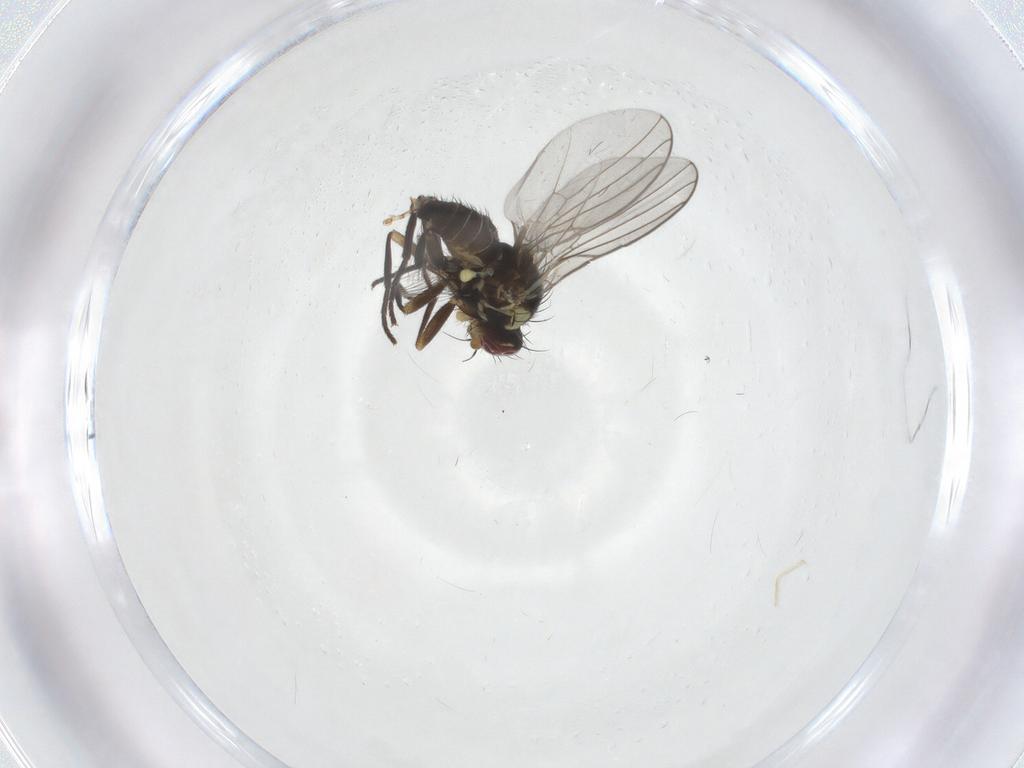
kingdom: Animalia
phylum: Arthropoda
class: Insecta
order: Diptera
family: Agromyzidae
